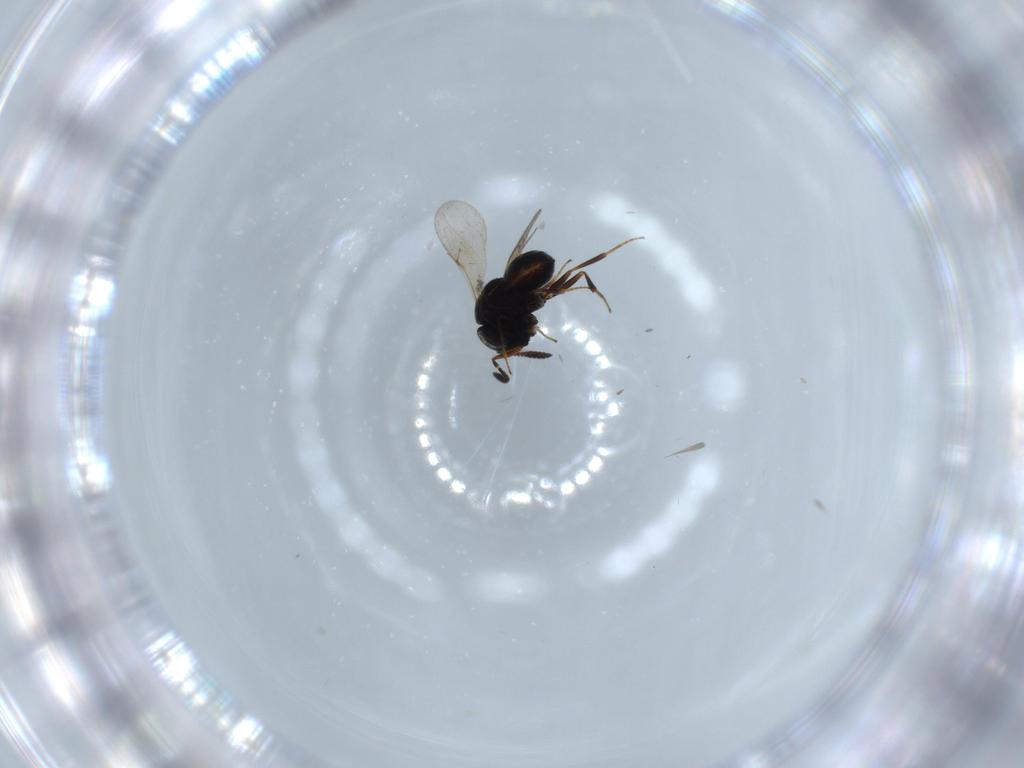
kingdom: Animalia
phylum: Arthropoda
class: Insecta
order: Hymenoptera
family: Scelionidae
